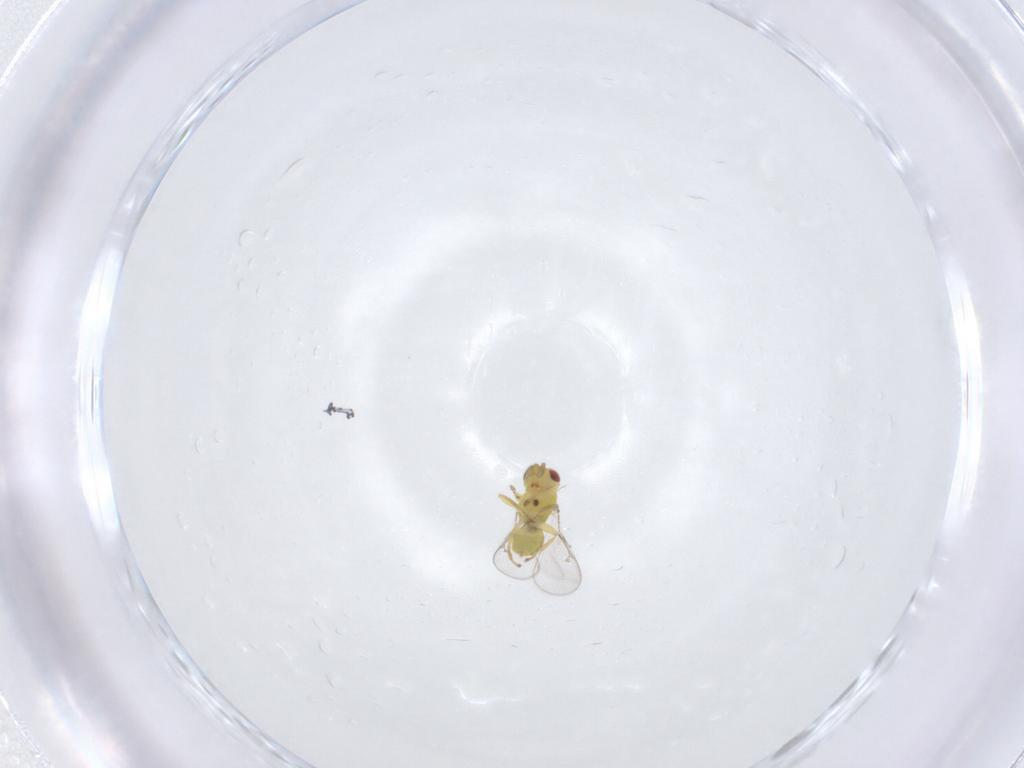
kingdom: Animalia
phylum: Arthropoda
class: Insecta
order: Hymenoptera
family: Eulophidae
